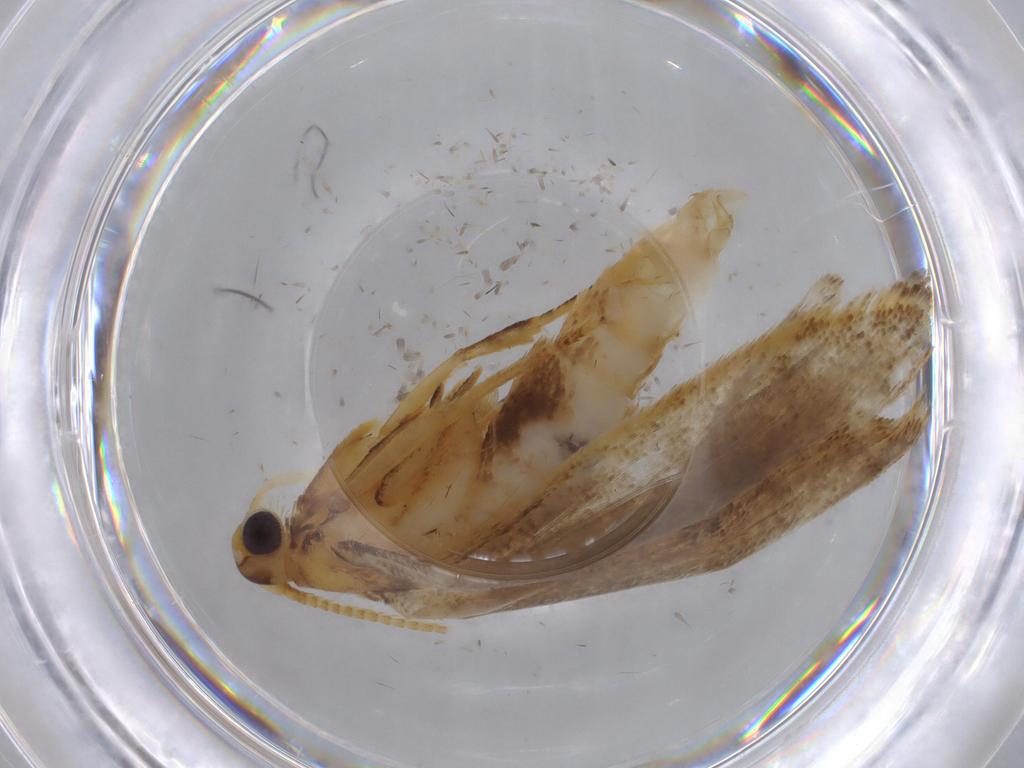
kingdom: Animalia
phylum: Arthropoda
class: Insecta
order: Lepidoptera
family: Lecithoceridae
